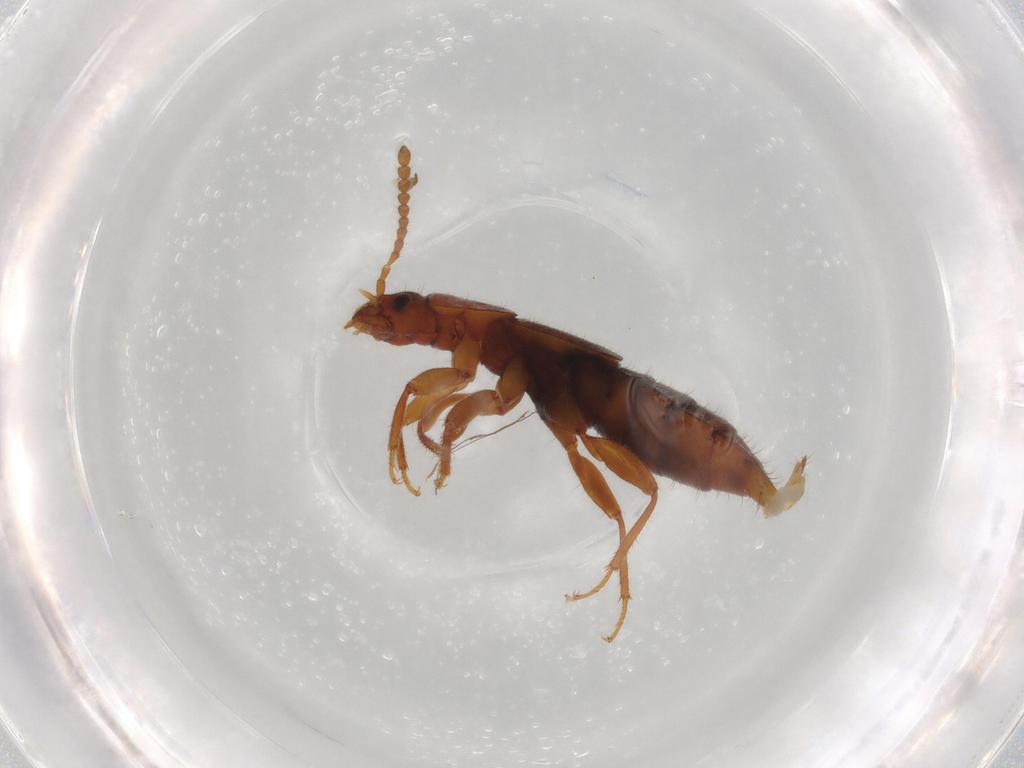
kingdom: Animalia
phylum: Arthropoda
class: Insecta
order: Coleoptera
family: Staphylinidae
